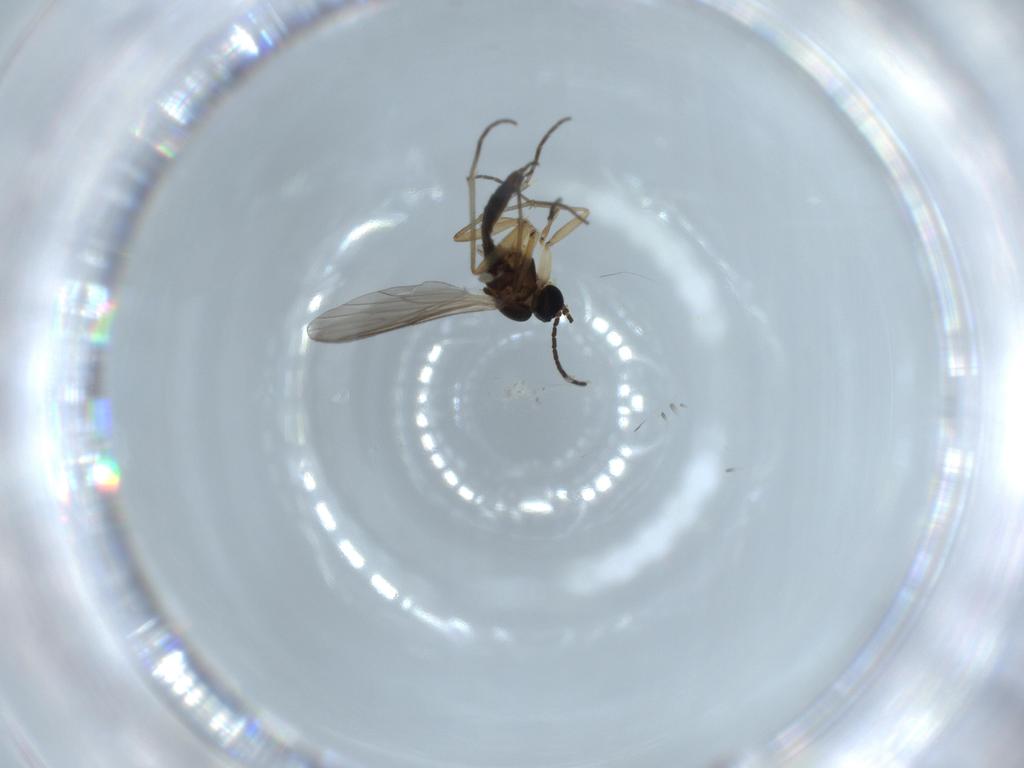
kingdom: Animalia
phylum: Arthropoda
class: Insecta
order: Diptera
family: Sciaridae
